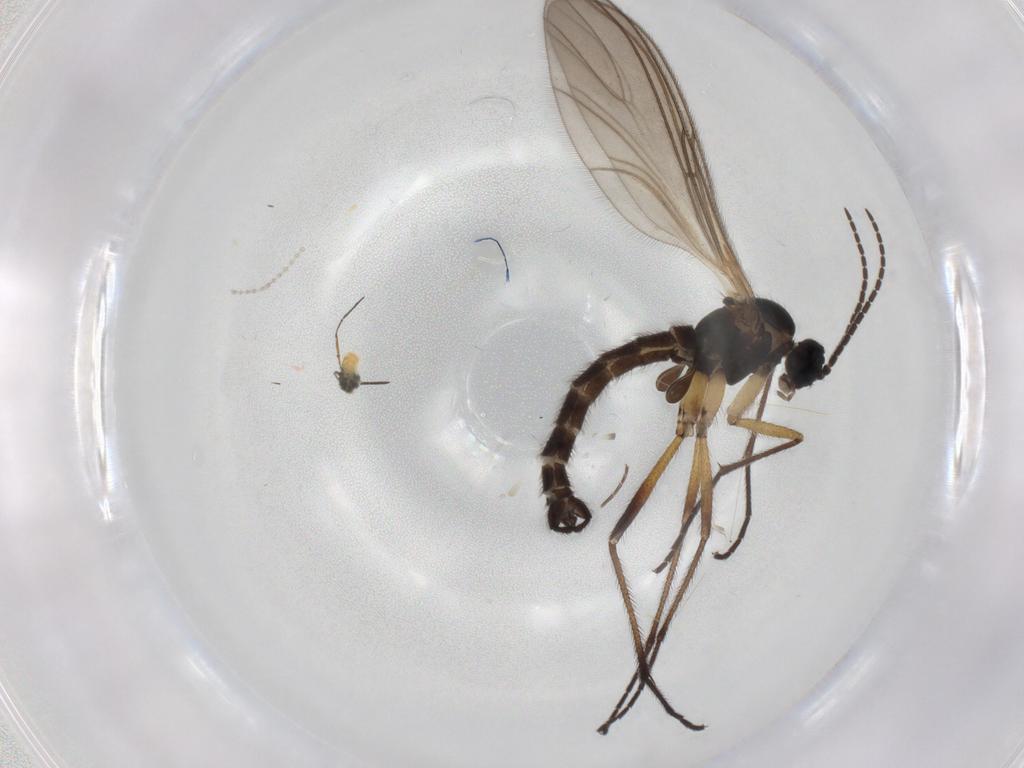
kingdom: Animalia
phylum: Arthropoda
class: Insecta
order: Diptera
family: Sciaridae
